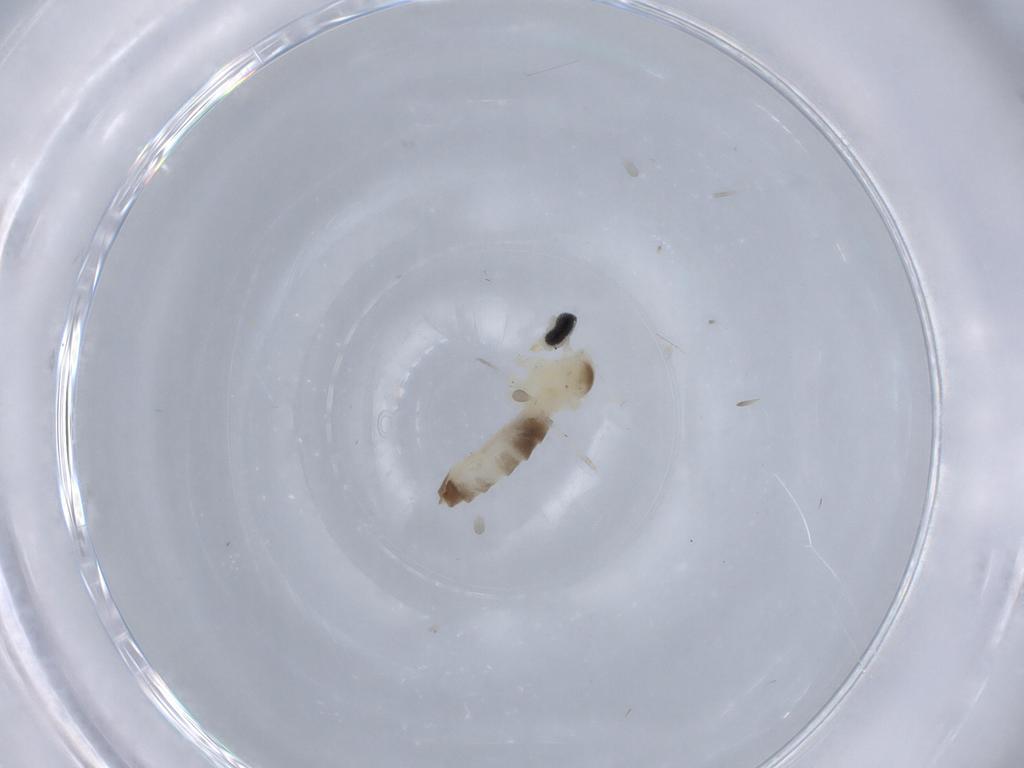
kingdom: Animalia
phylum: Arthropoda
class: Insecta
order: Diptera
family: Cecidomyiidae
